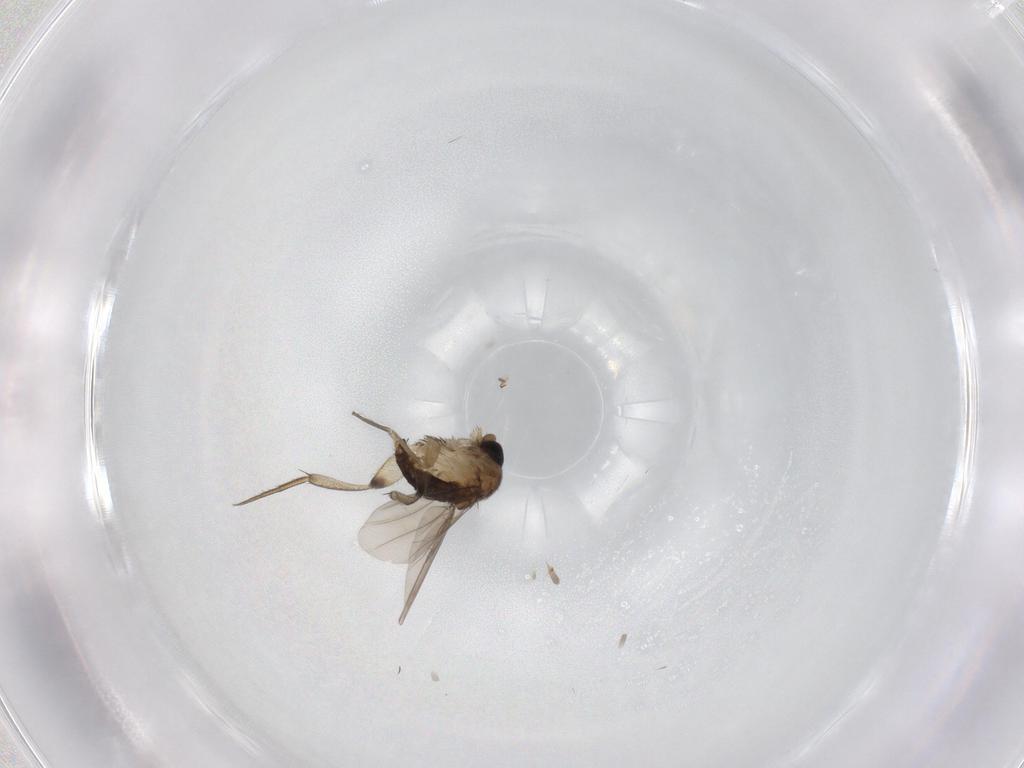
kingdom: Animalia
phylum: Arthropoda
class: Insecta
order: Diptera
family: Phoridae
